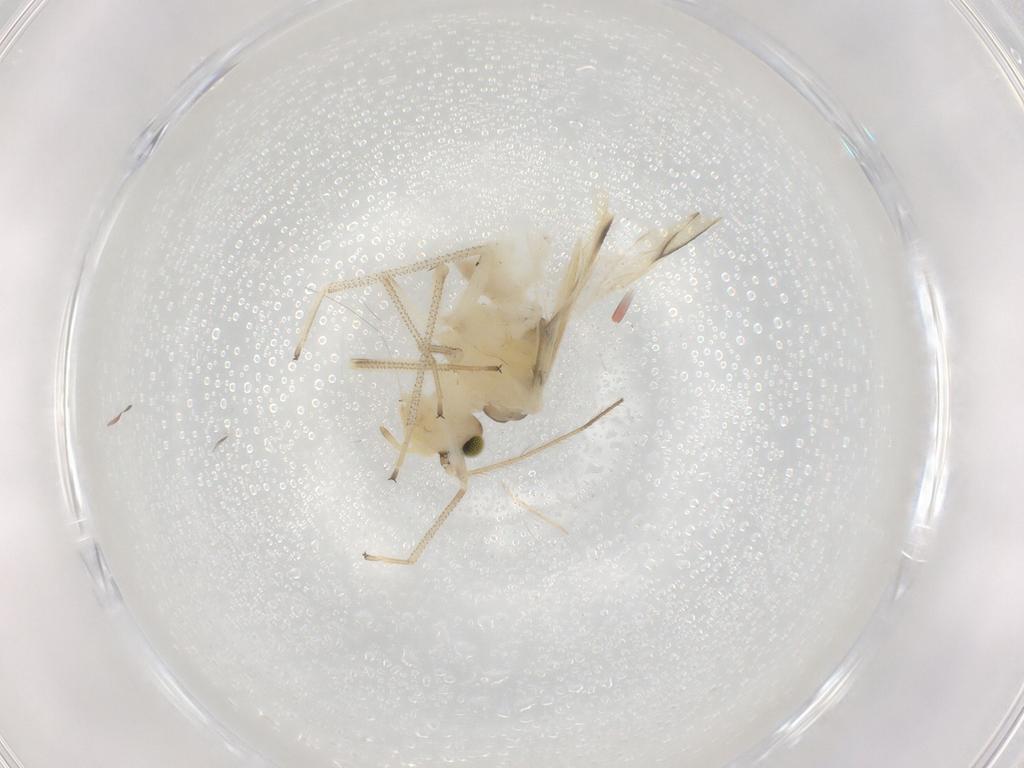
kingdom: Animalia
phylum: Arthropoda
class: Insecta
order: Psocodea
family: Caeciliusidae
